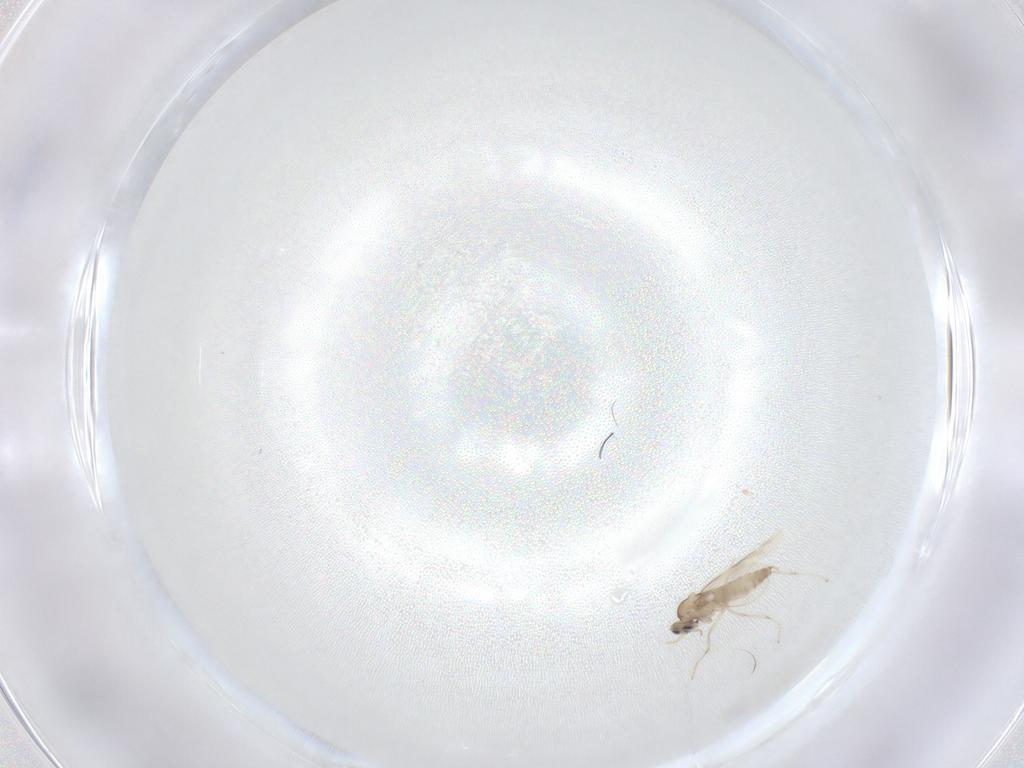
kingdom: Animalia
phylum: Arthropoda
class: Insecta
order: Diptera
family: Cecidomyiidae
